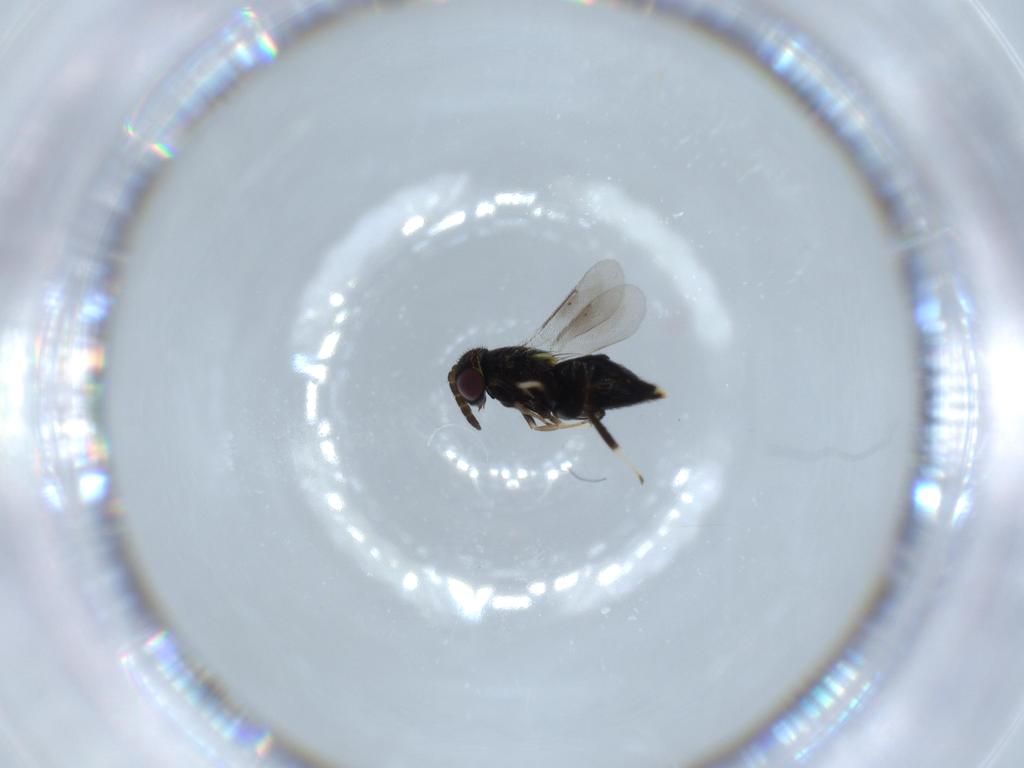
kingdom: Animalia
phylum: Arthropoda
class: Insecta
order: Hymenoptera
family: Aphelinidae
